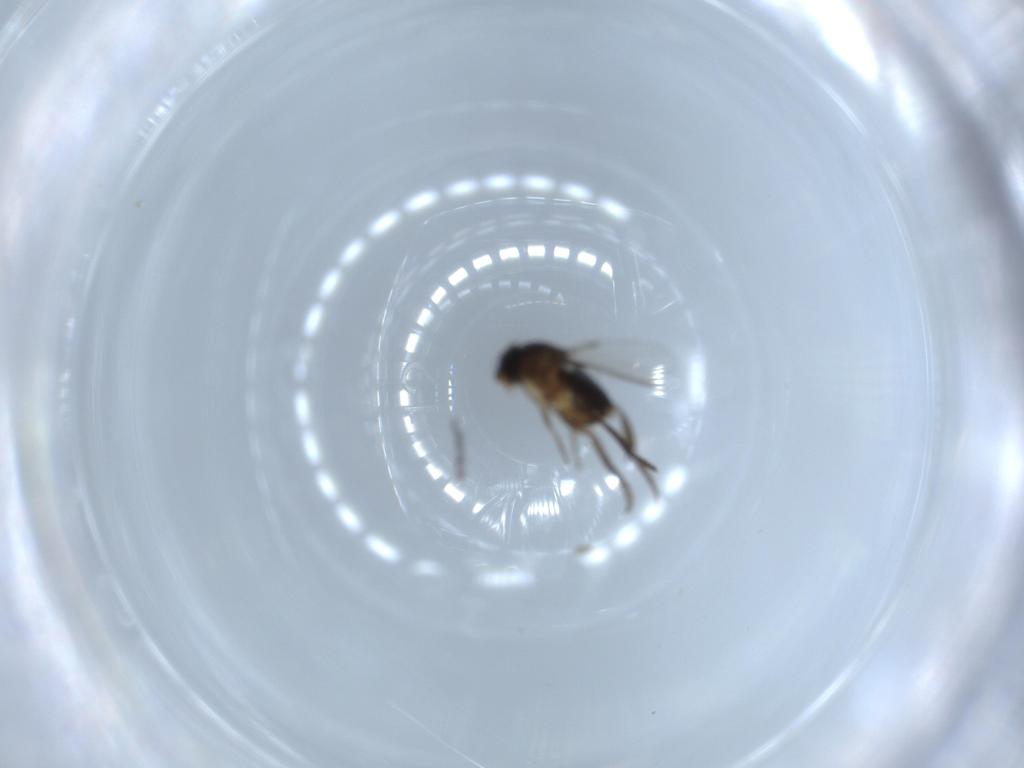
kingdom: Animalia
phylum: Arthropoda
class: Insecta
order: Diptera
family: Phoridae
